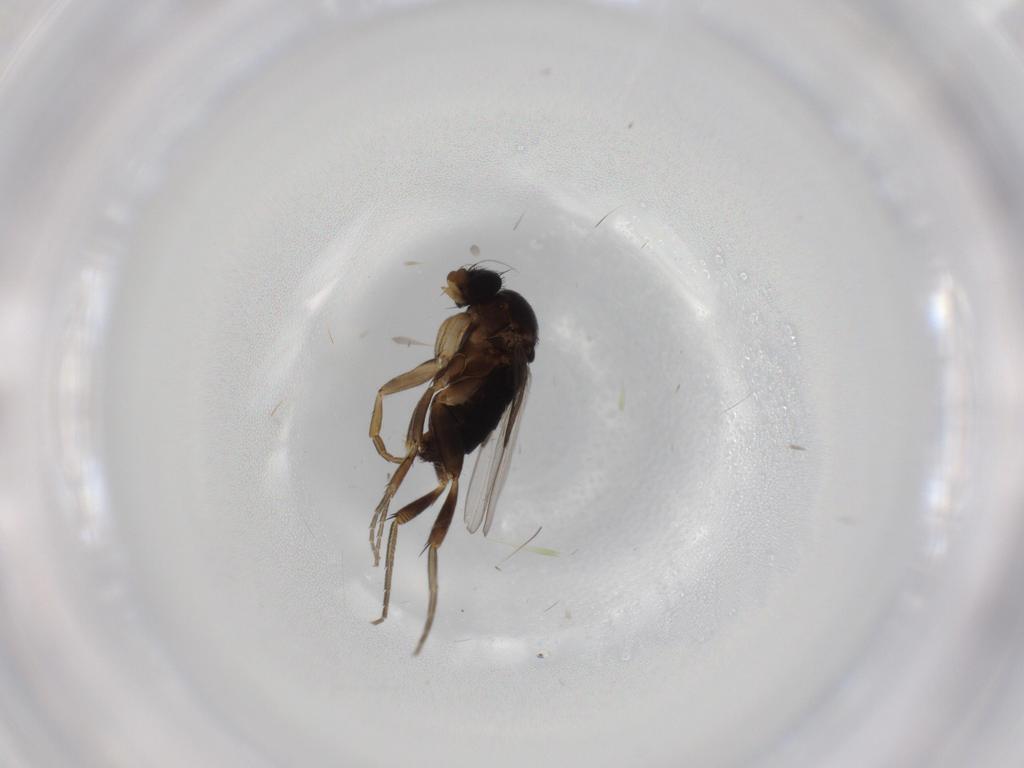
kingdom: Animalia
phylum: Arthropoda
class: Insecta
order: Diptera
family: Phoridae
